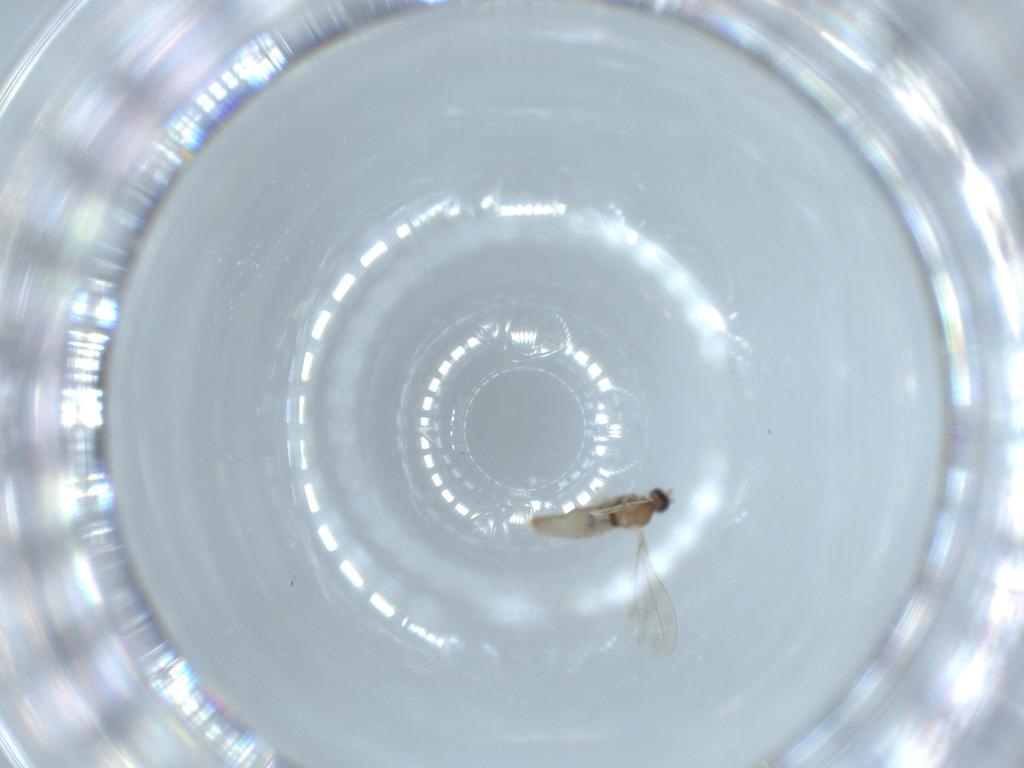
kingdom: Animalia
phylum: Arthropoda
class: Insecta
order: Diptera
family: Cecidomyiidae
